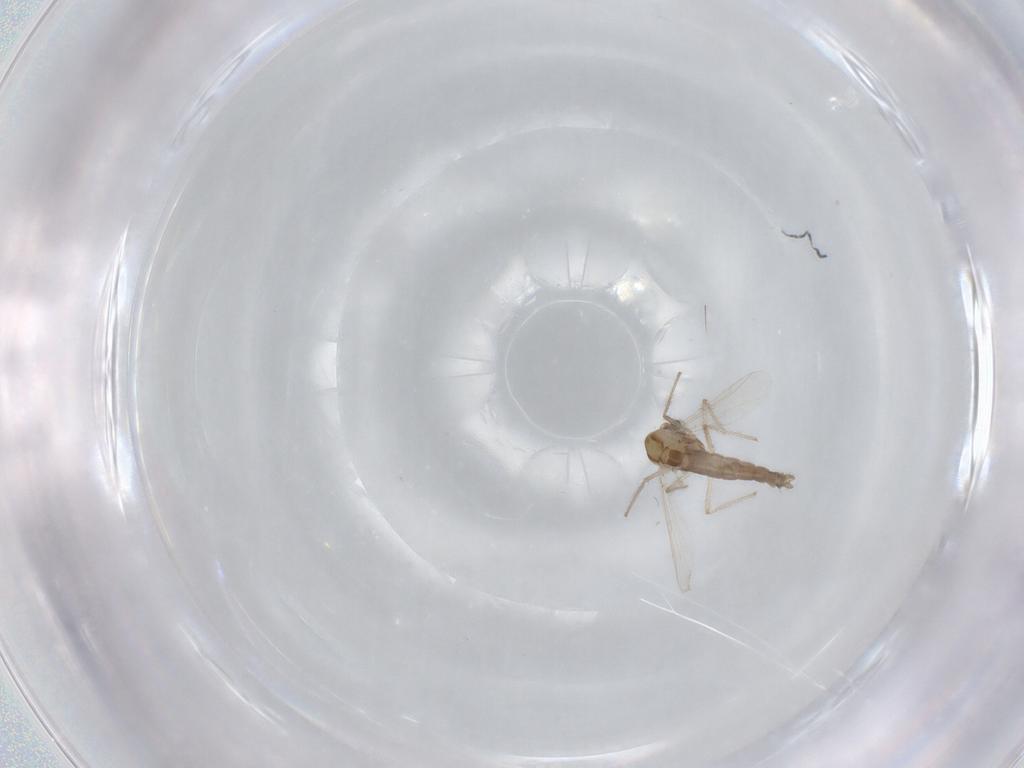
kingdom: Animalia
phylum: Arthropoda
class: Insecta
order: Diptera
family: Chironomidae
